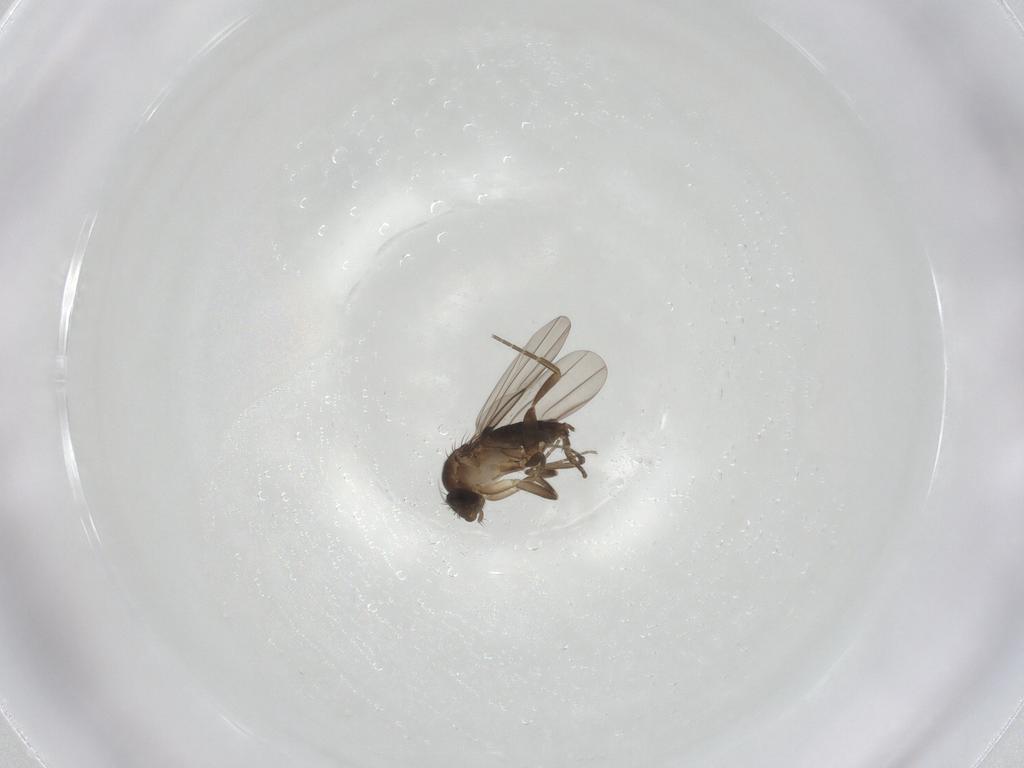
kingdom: Animalia
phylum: Arthropoda
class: Insecta
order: Diptera
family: Phoridae
